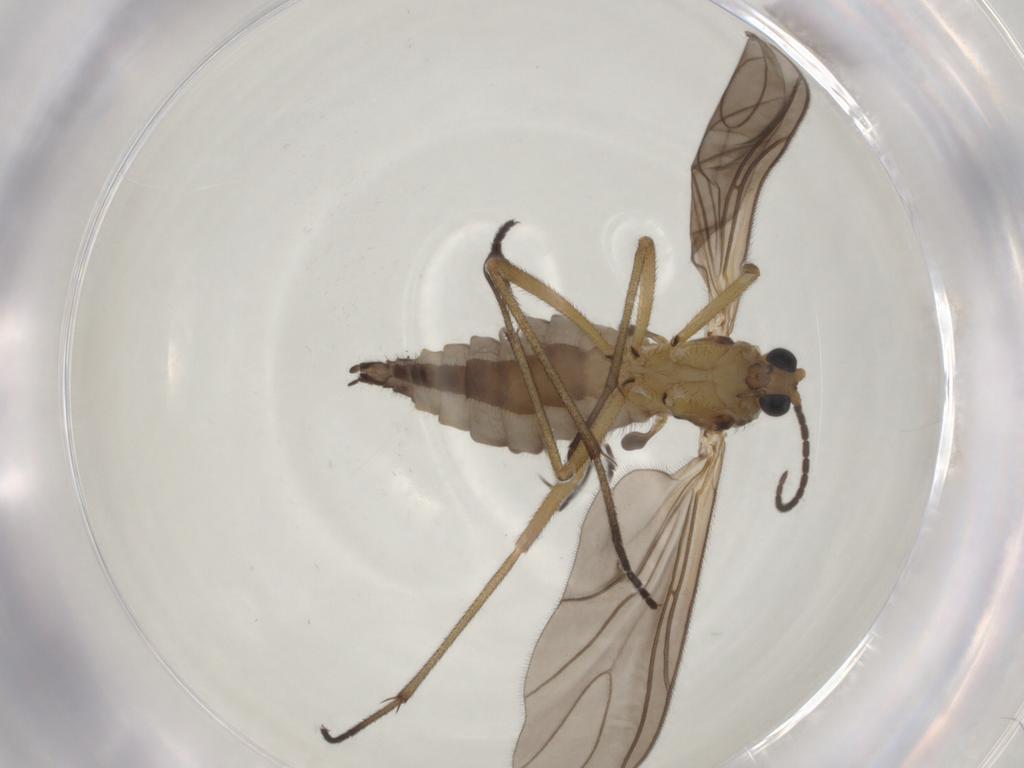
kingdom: Animalia
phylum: Arthropoda
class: Insecta
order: Diptera
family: Sciaridae
